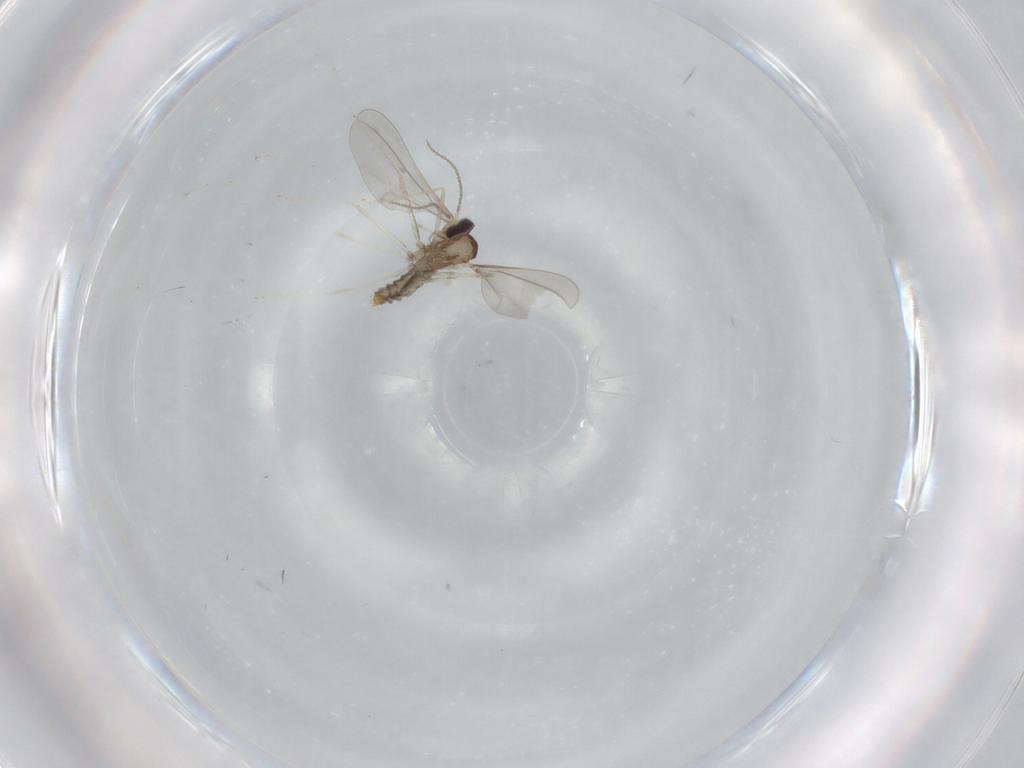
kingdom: Animalia
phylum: Arthropoda
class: Insecta
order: Diptera
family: Cecidomyiidae
